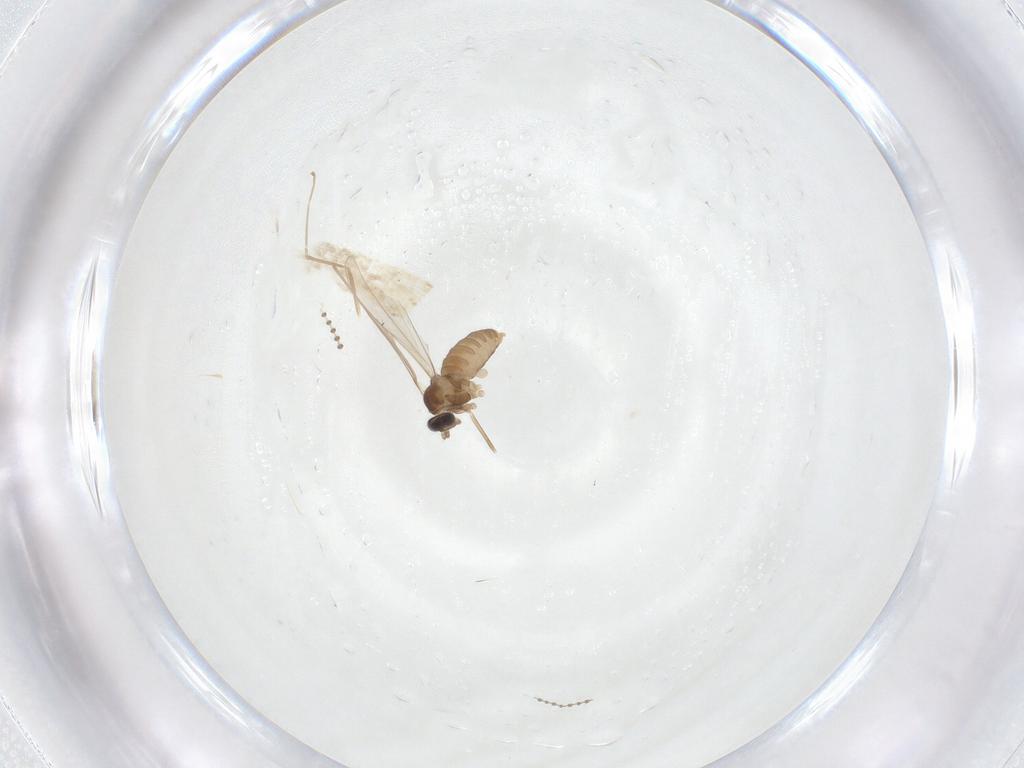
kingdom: Animalia
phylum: Arthropoda
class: Insecta
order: Diptera
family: Cecidomyiidae
